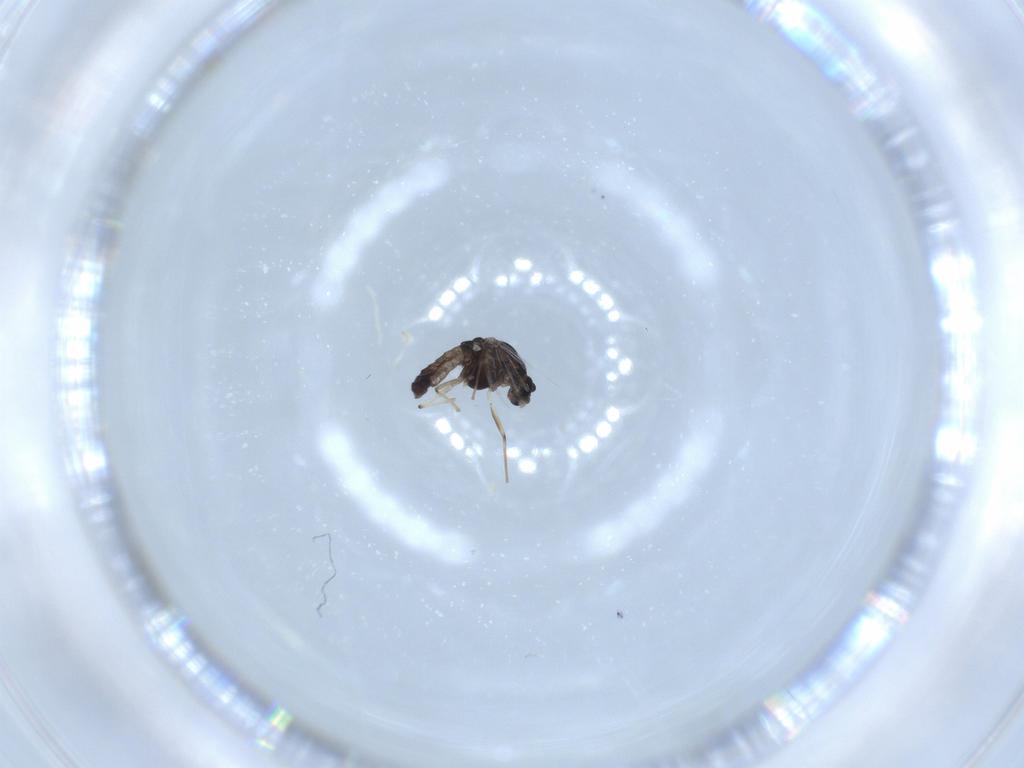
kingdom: Animalia
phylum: Arthropoda
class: Insecta
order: Diptera
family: Chironomidae
